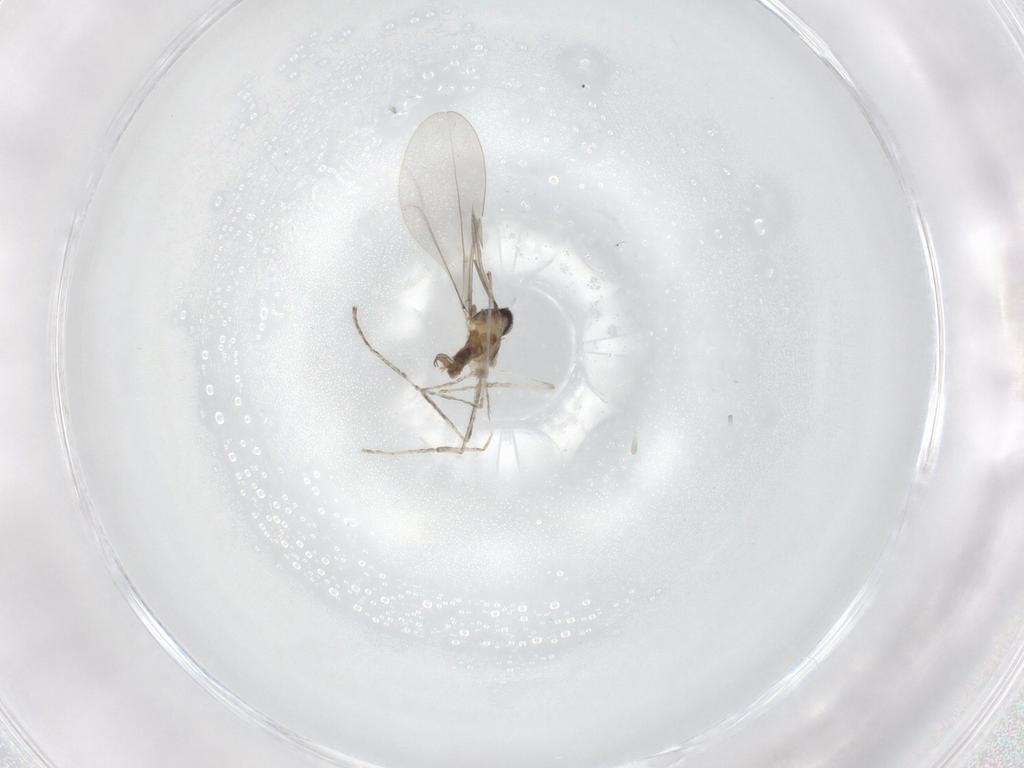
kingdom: Animalia
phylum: Arthropoda
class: Insecta
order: Diptera
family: Cecidomyiidae
